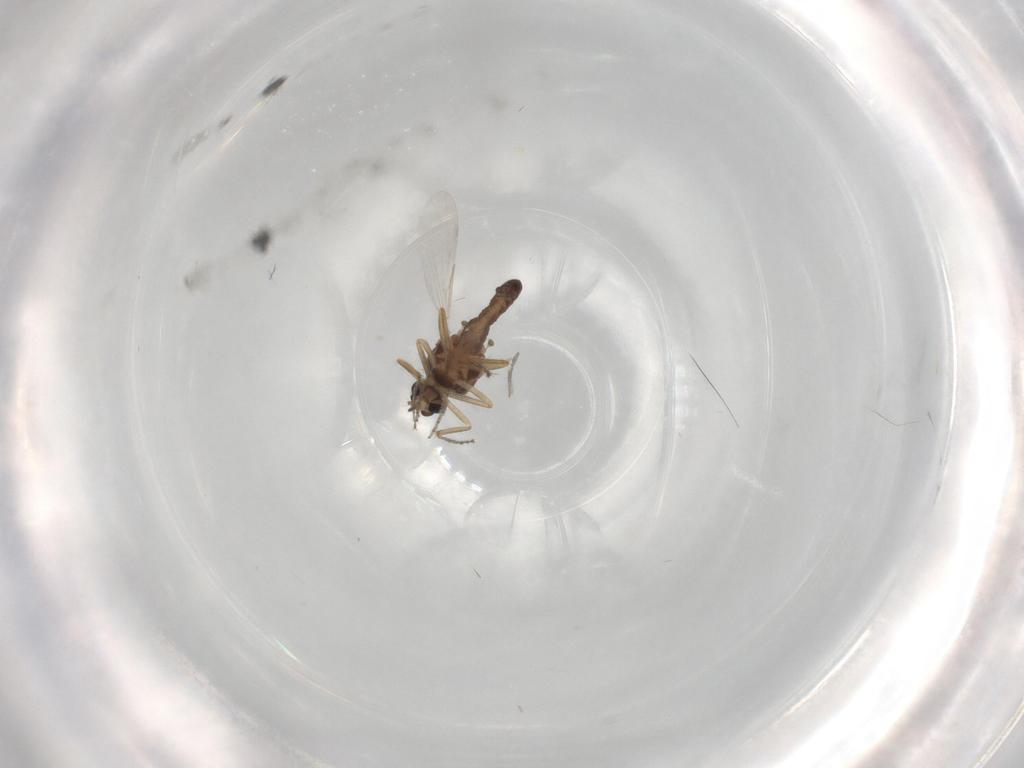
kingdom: Animalia
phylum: Arthropoda
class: Insecta
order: Diptera
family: Ceratopogonidae
